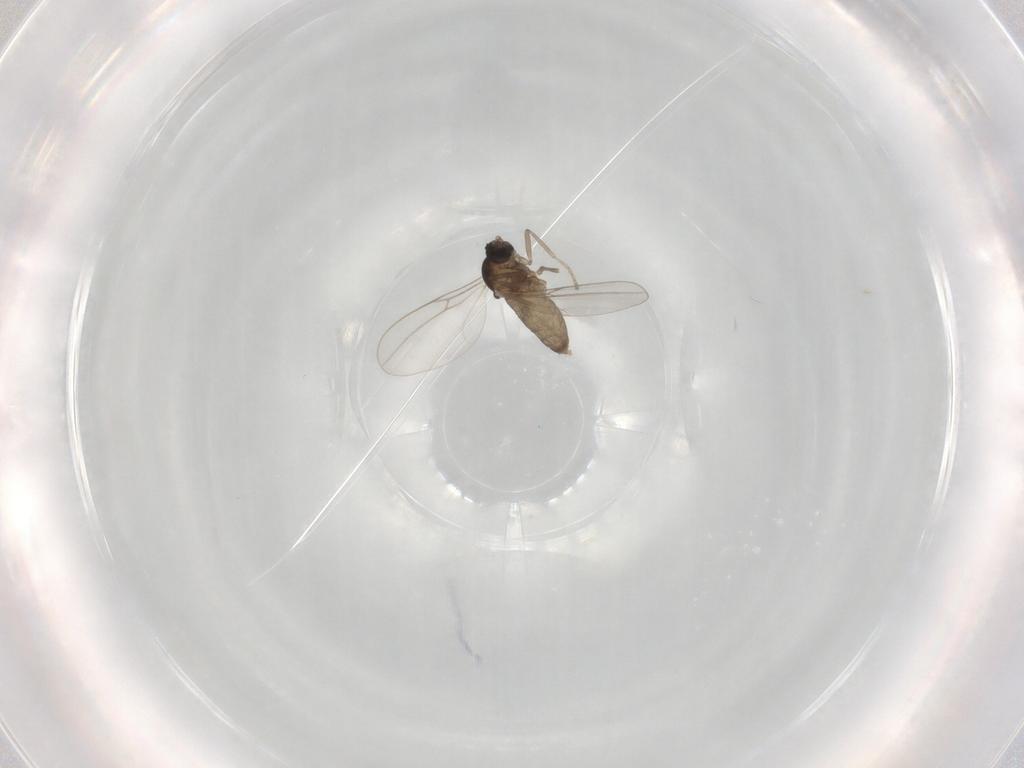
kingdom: Animalia
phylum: Arthropoda
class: Insecta
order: Diptera
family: Cecidomyiidae
